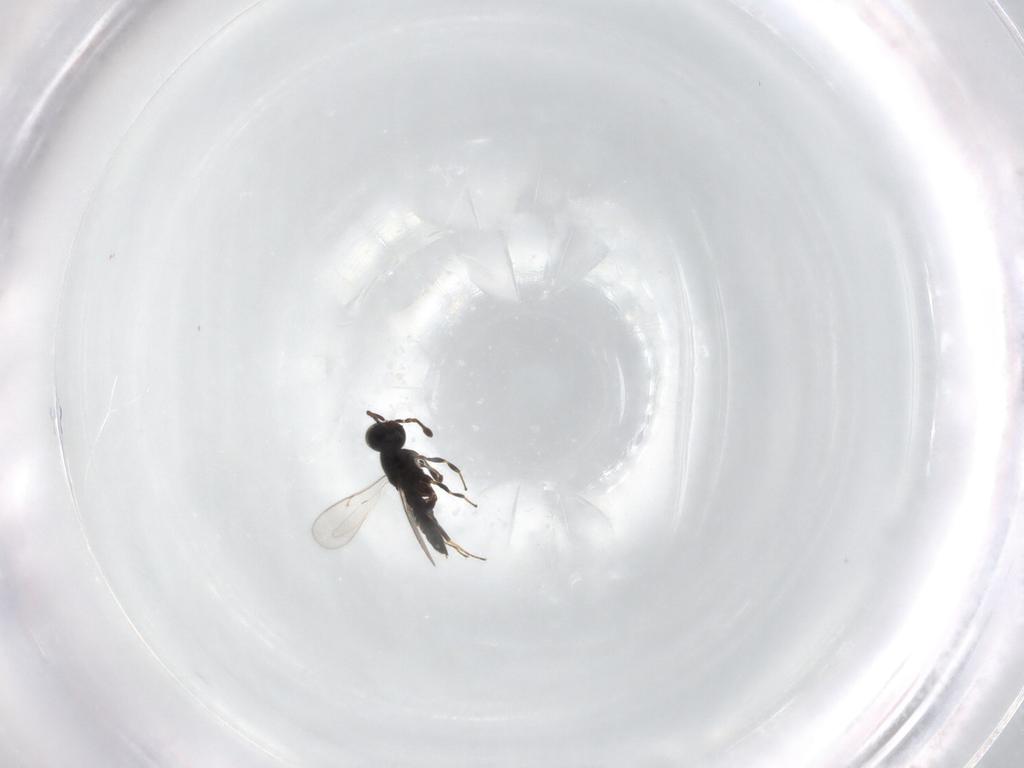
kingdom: Animalia
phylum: Arthropoda
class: Insecta
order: Hymenoptera
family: Scelionidae
